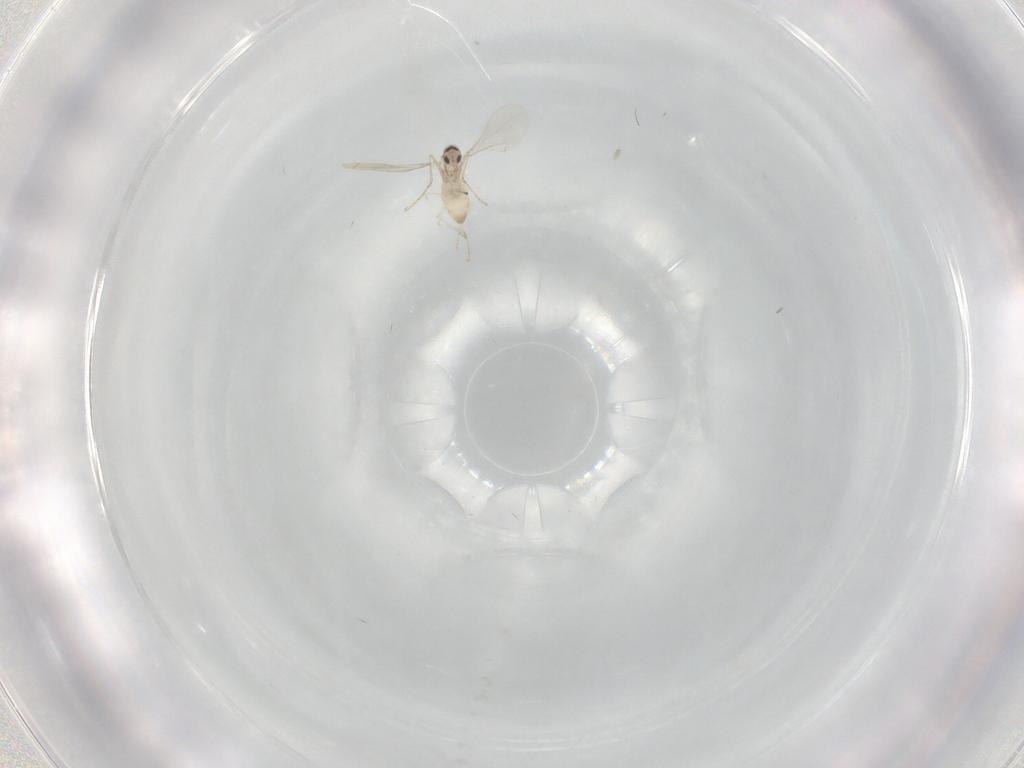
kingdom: Animalia
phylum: Arthropoda
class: Insecta
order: Diptera
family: Cecidomyiidae
